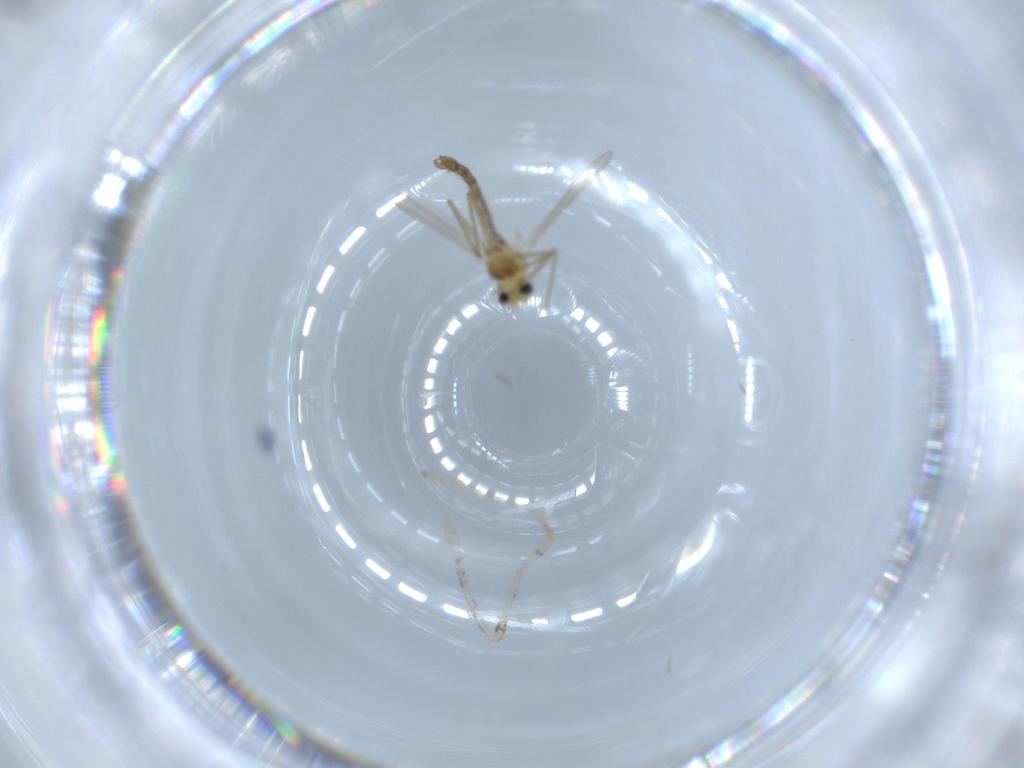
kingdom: Animalia
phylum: Arthropoda
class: Insecta
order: Diptera
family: Chironomidae
